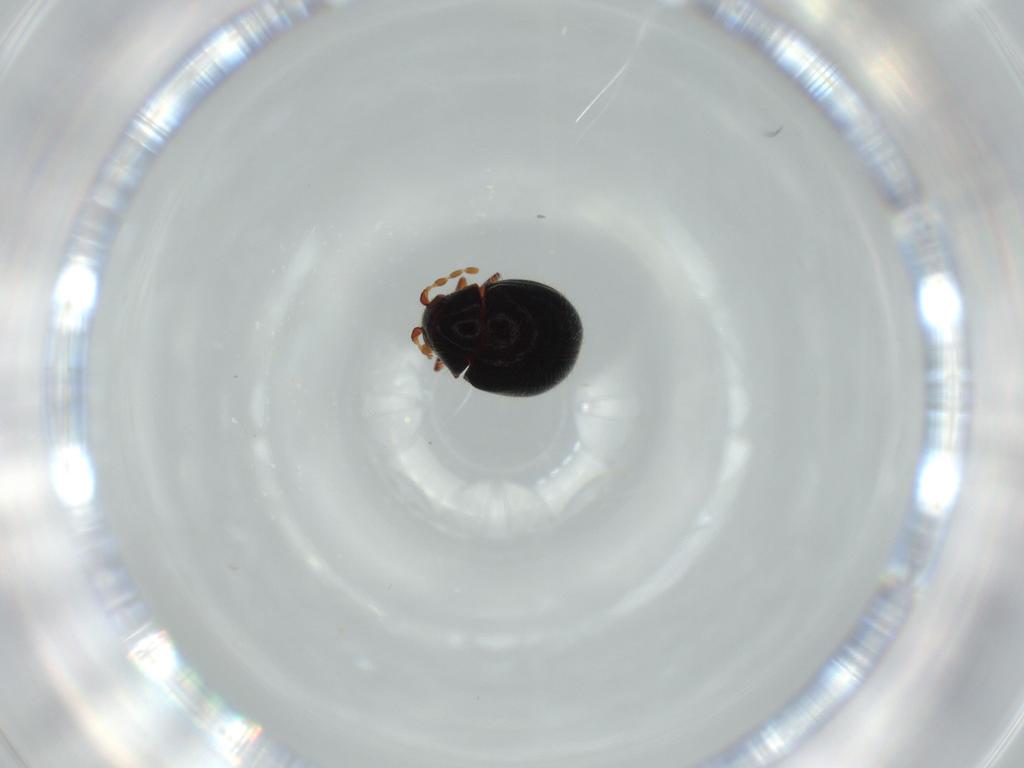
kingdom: Animalia
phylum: Arthropoda
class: Insecta
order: Coleoptera
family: Ptinidae
